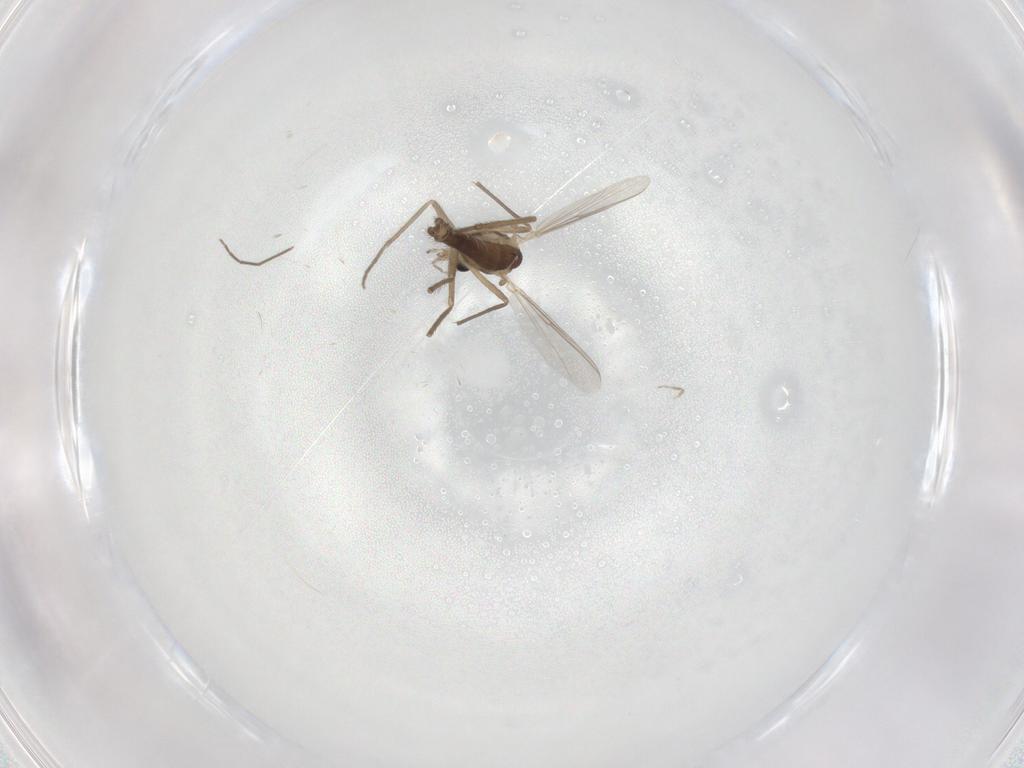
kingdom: Animalia
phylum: Arthropoda
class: Insecta
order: Diptera
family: Chironomidae
